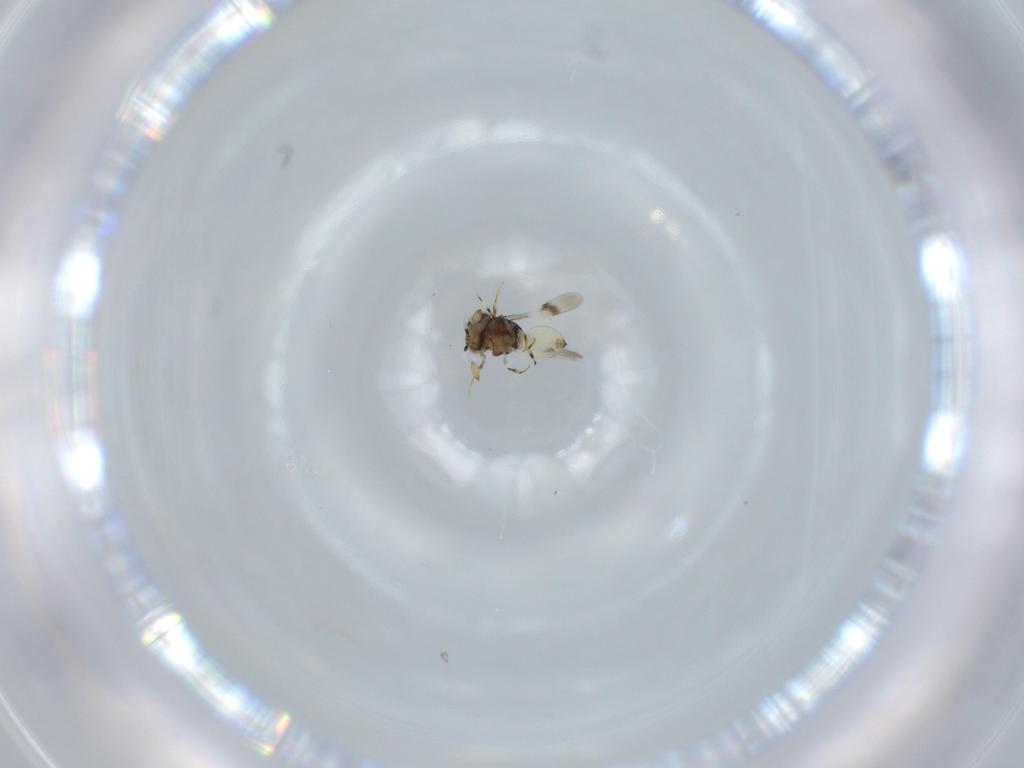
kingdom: Animalia
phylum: Arthropoda
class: Insecta
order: Hymenoptera
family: Scelionidae
